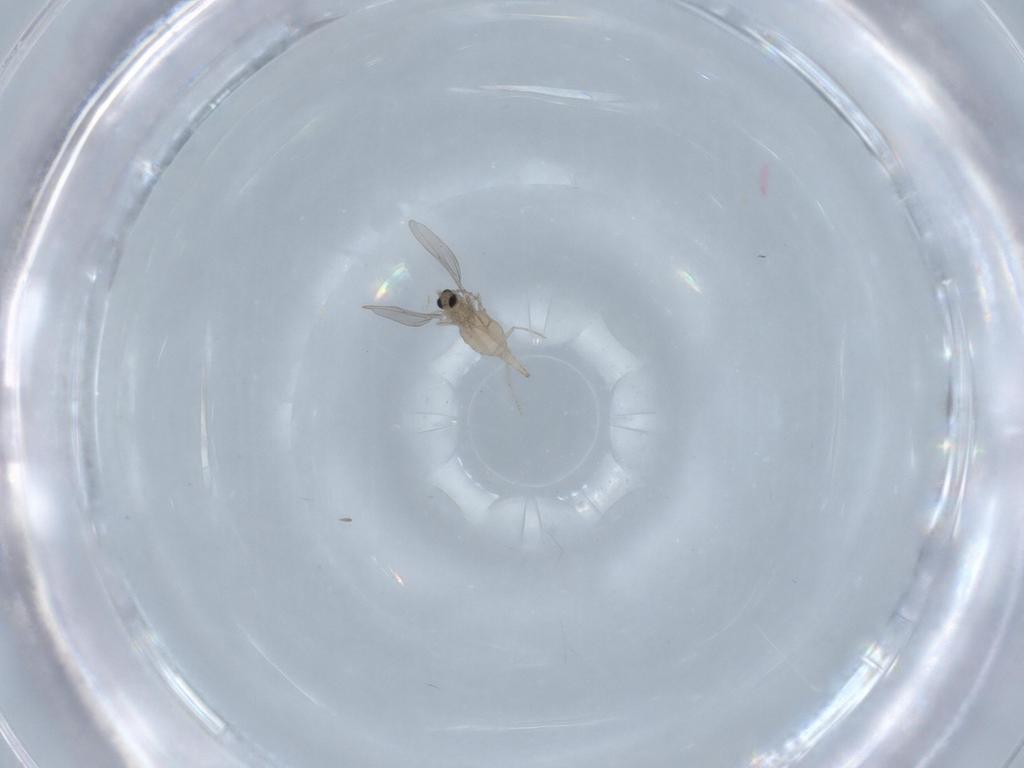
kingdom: Animalia
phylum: Arthropoda
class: Insecta
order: Diptera
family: Cecidomyiidae
